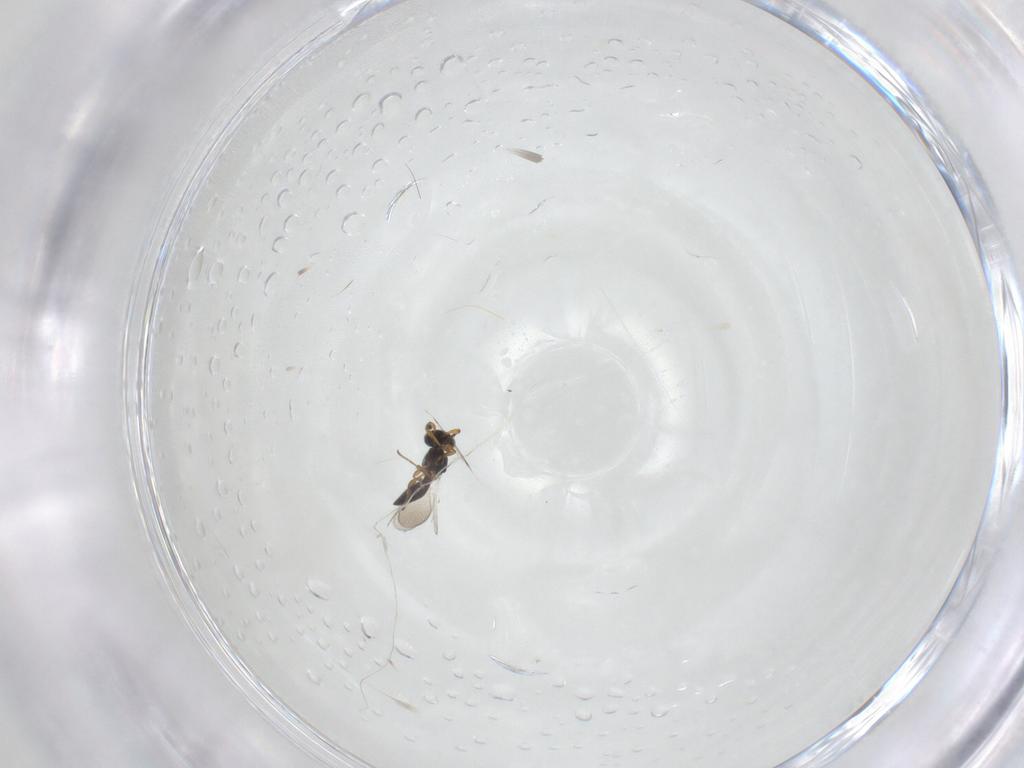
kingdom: Animalia
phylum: Arthropoda
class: Insecta
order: Hymenoptera
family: Platygastridae
